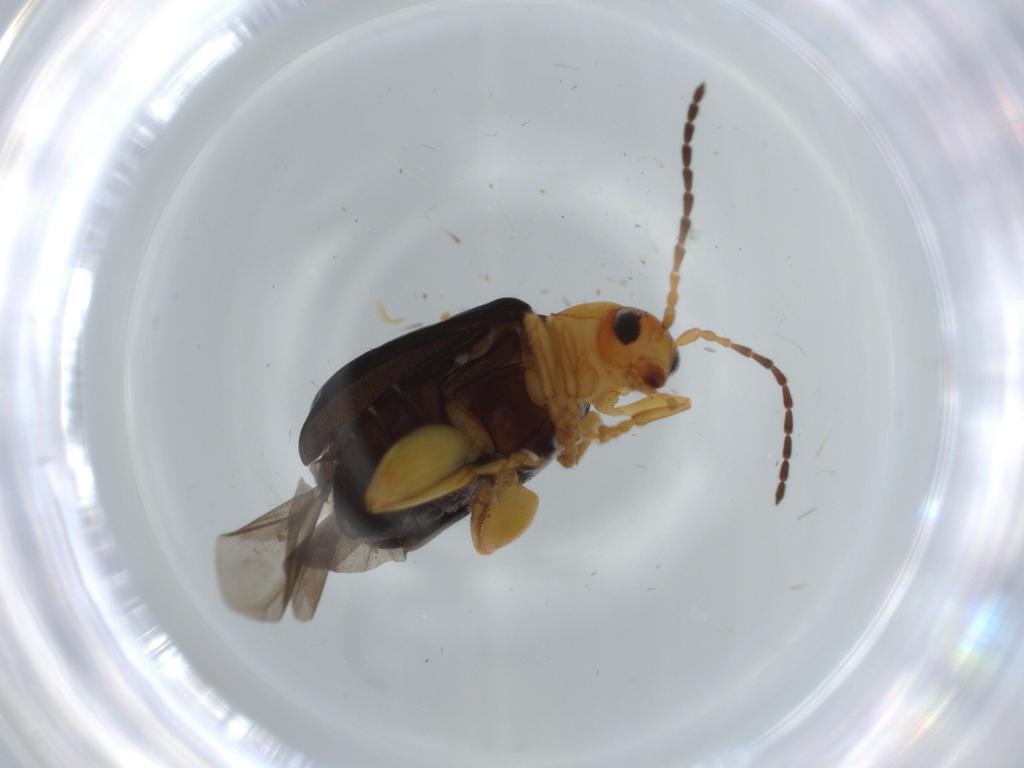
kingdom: Animalia
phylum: Arthropoda
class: Insecta
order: Coleoptera
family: Chrysomelidae
